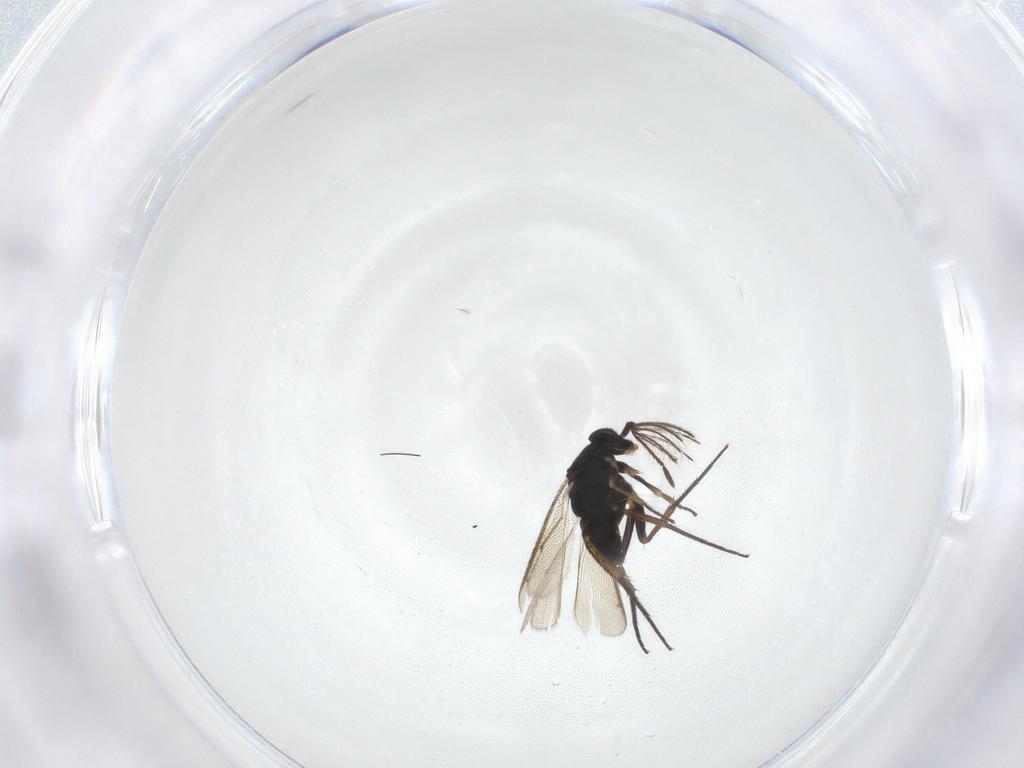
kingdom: Animalia
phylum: Arthropoda
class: Insecta
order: Hymenoptera
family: Eulophidae
